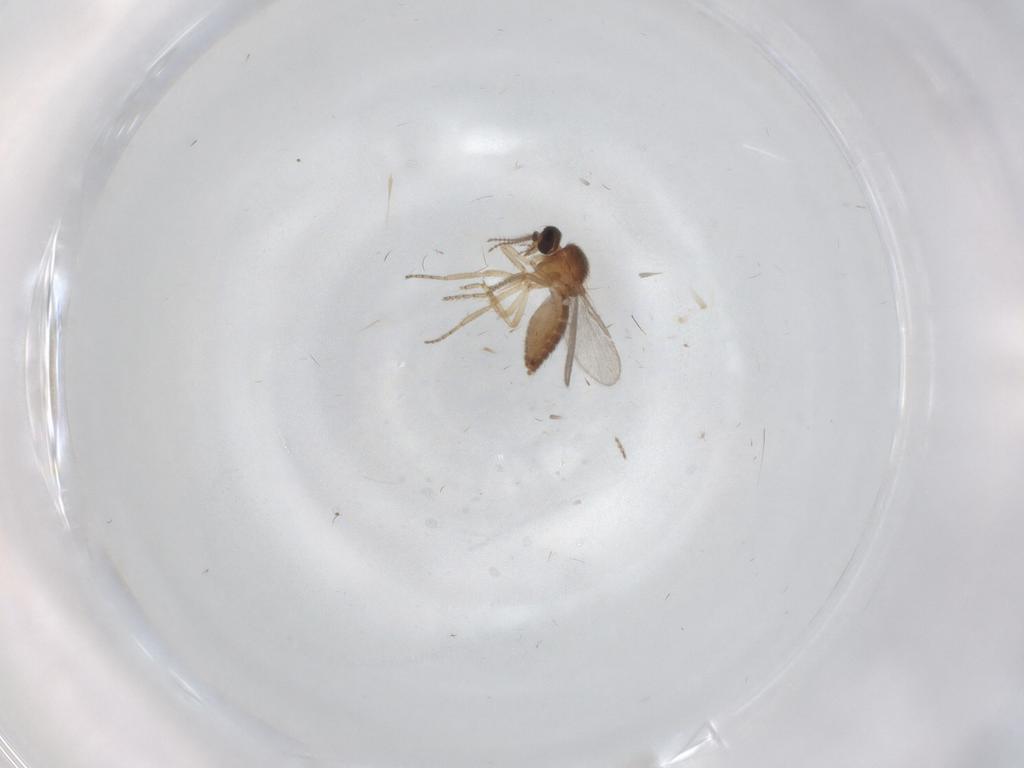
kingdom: Animalia
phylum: Arthropoda
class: Insecta
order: Diptera
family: Ceratopogonidae
